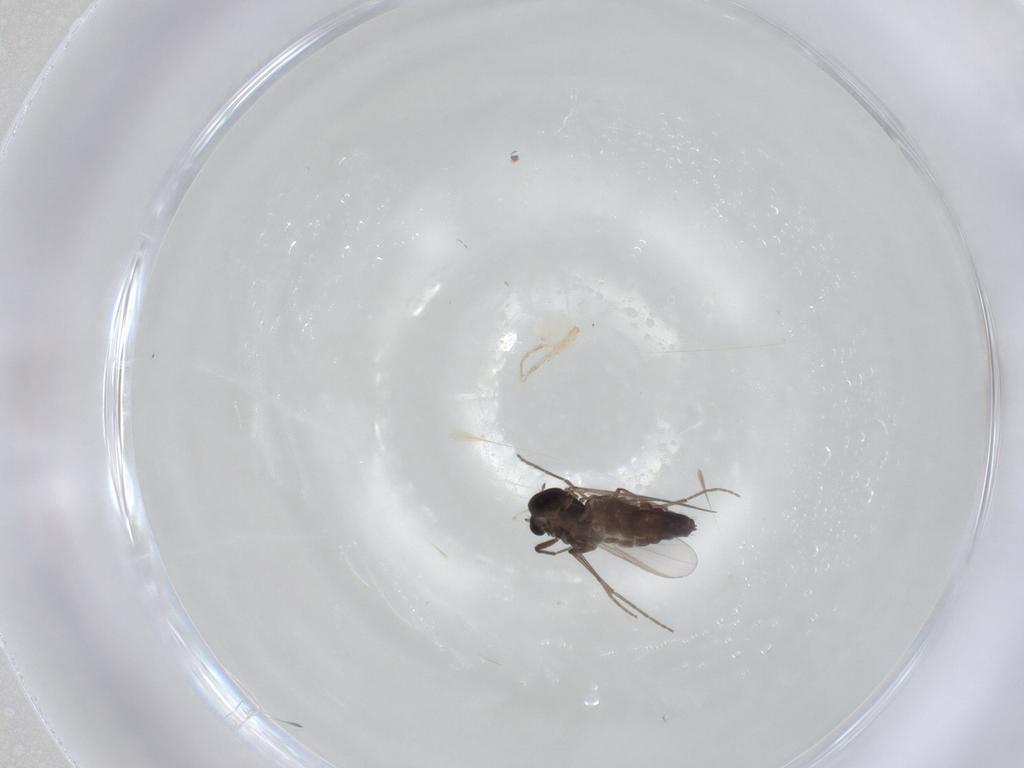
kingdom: Animalia
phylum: Arthropoda
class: Insecta
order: Diptera
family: Chironomidae
